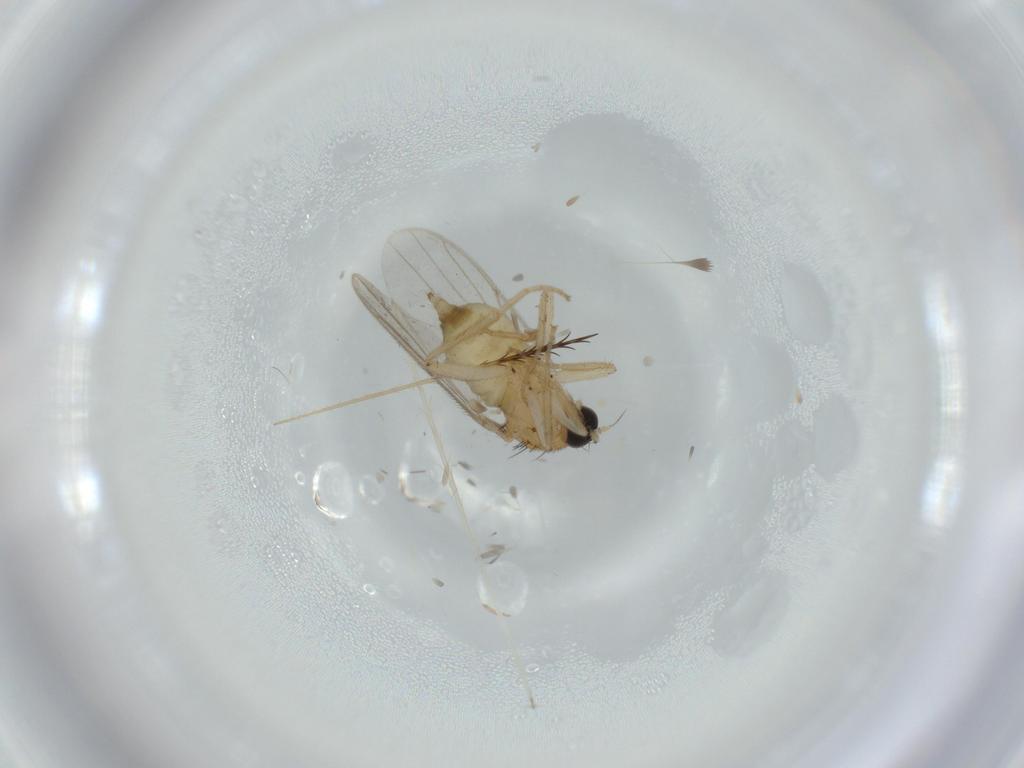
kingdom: Animalia
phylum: Arthropoda
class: Insecta
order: Diptera
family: Hybotidae
